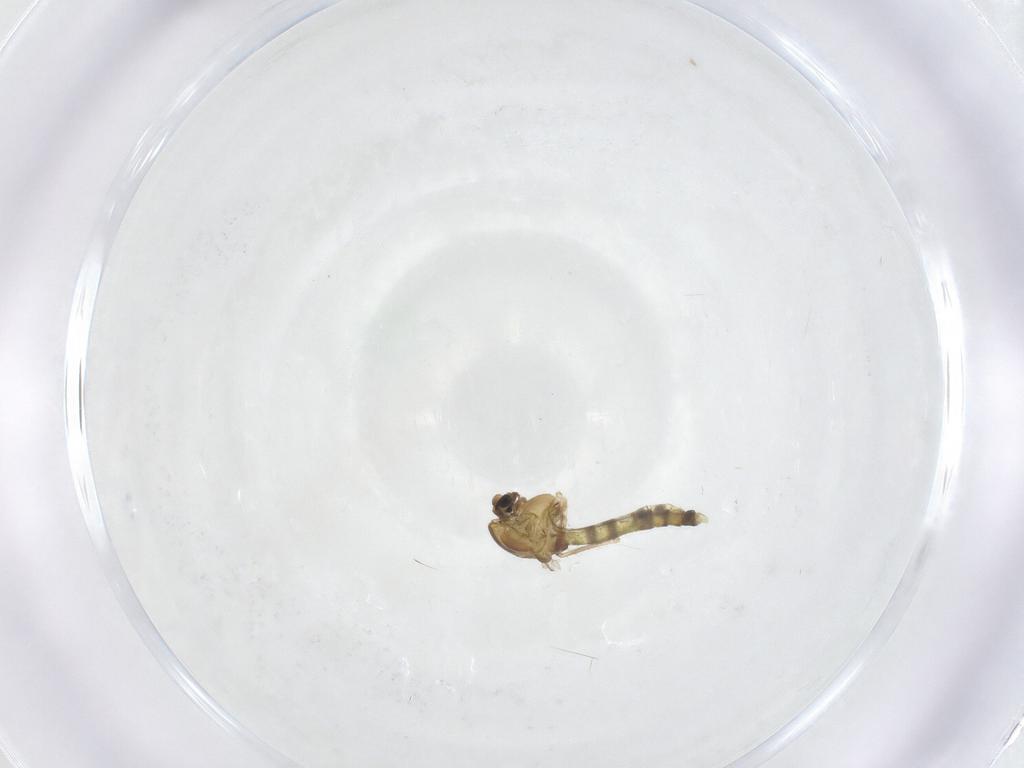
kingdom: Animalia
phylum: Arthropoda
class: Insecta
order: Diptera
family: Chironomidae
